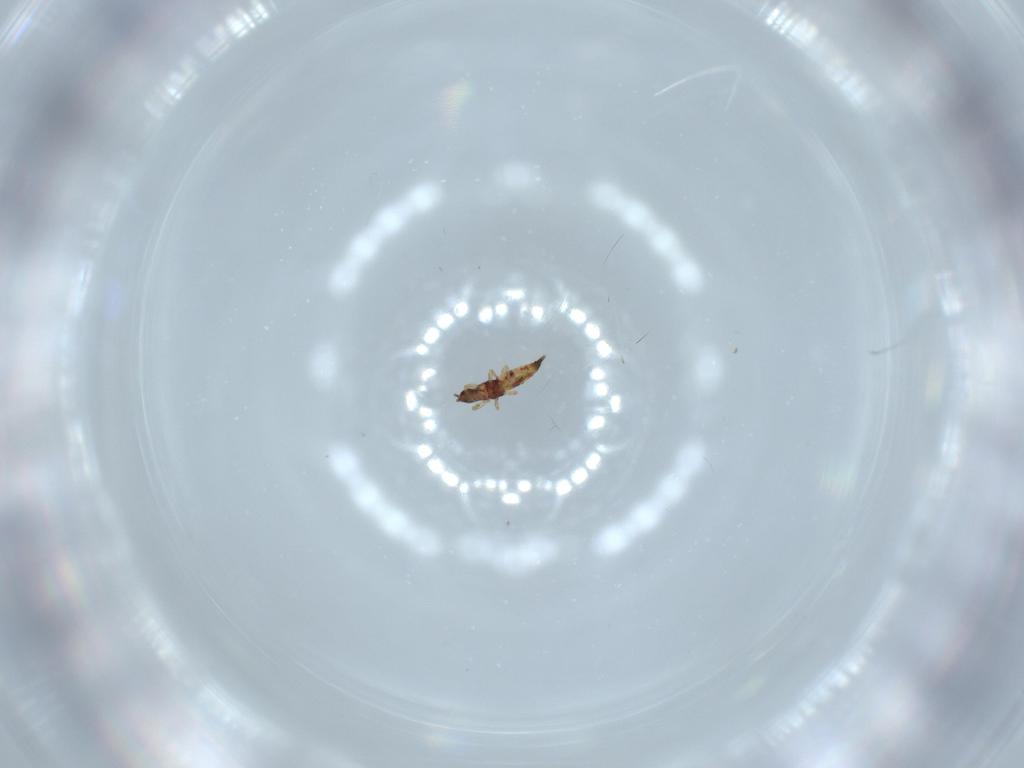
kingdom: Animalia
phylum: Arthropoda
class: Insecta
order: Thysanoptera
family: Phlaeothripidae
